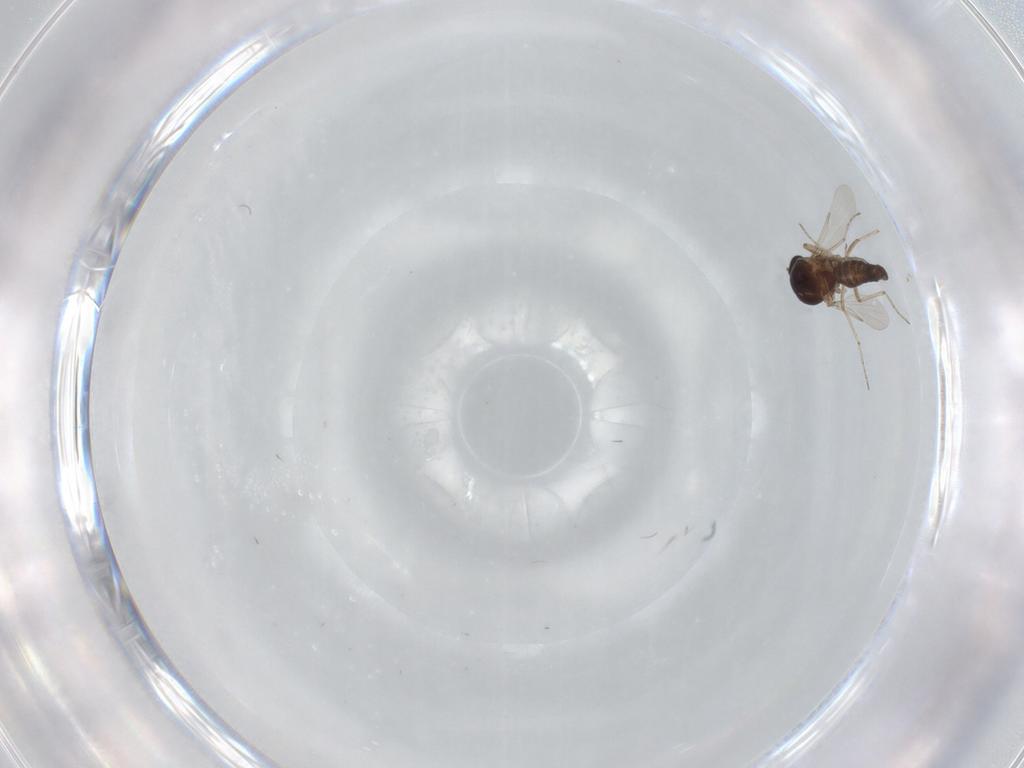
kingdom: Animalia
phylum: Arthropoda
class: Insecta
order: Diptera
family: Ceratopogonidae
